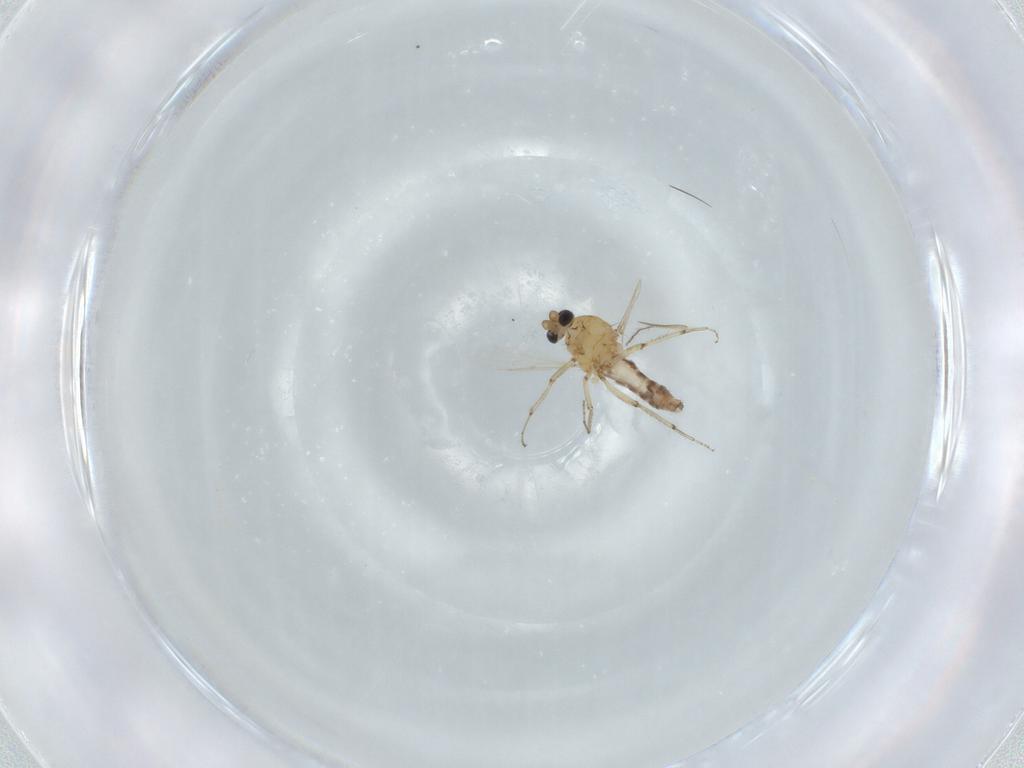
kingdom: Animalia
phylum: Arthropoda
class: Insecta
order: Diptera
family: Ceratopogonidae
